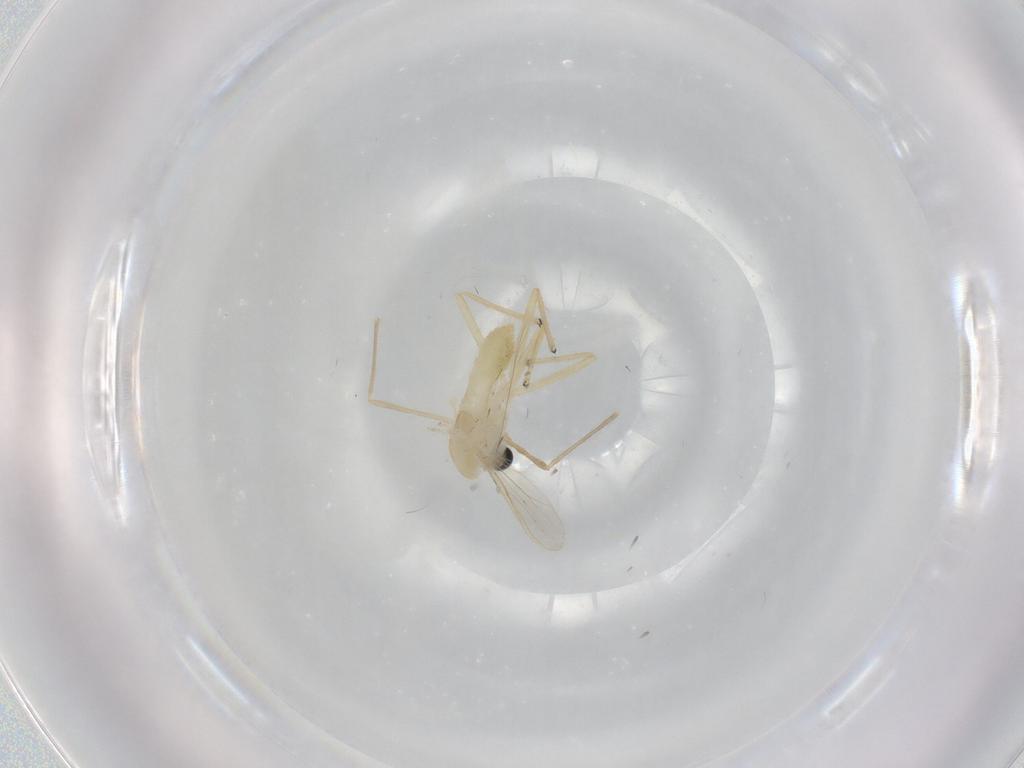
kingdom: Animalia
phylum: Arthropoda
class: Insecta
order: Diptera
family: Chironomidae
